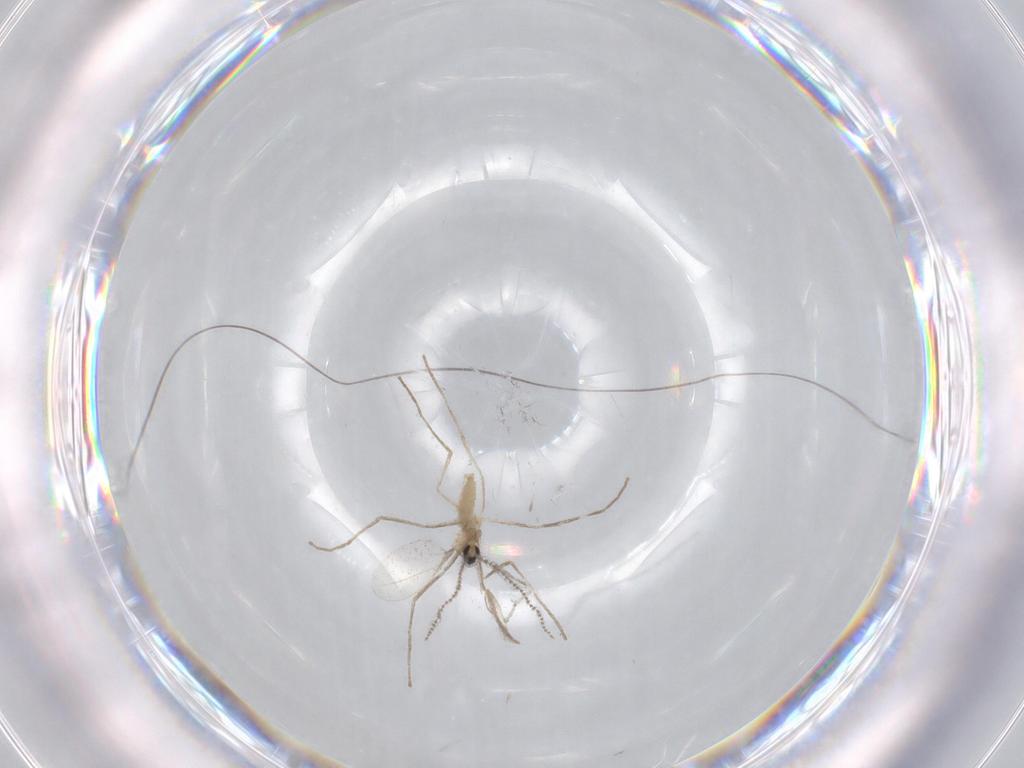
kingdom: Animalia
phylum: Arthropoda
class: Insecta
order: Diptera
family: Cecidomyiidae
